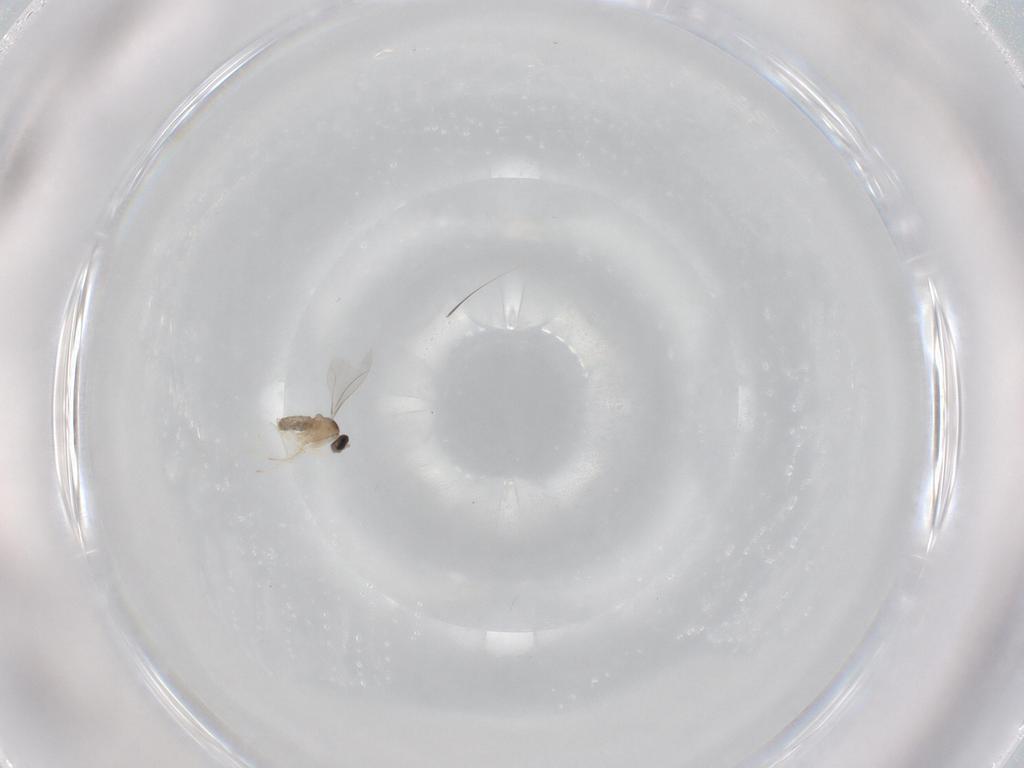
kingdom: Animalia
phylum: Arthropoda
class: Insecta
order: Diptera
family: Cecidomyiidae
